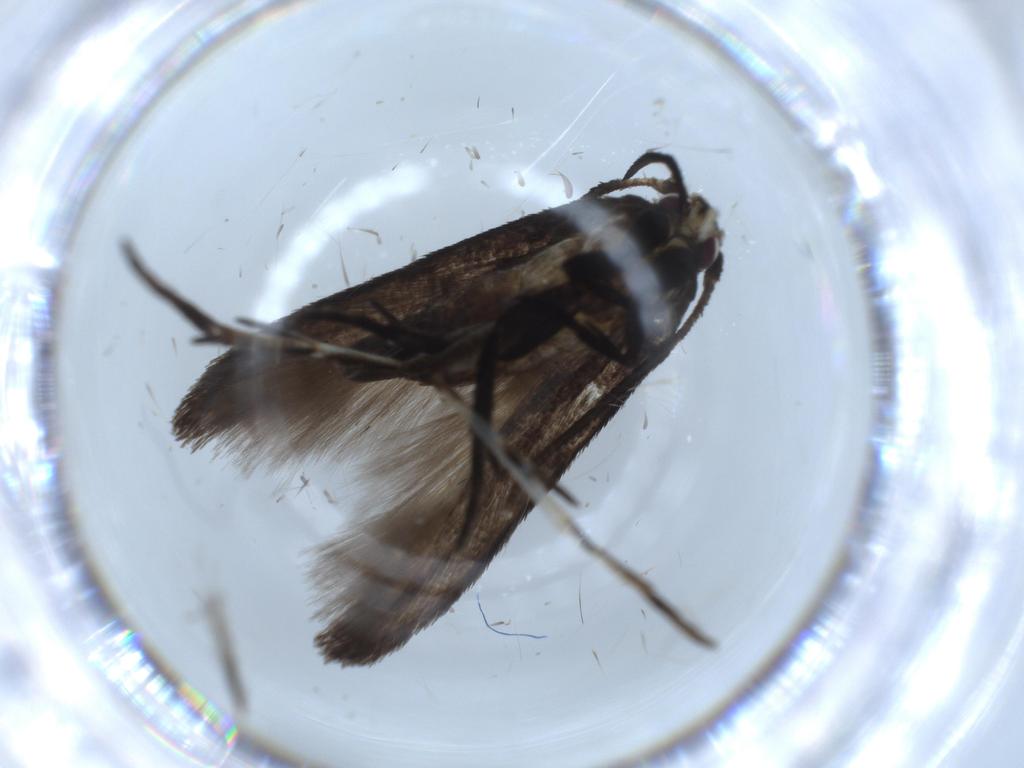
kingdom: Animalia
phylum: Arthropoda
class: Insecta
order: Lepidoptera
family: Cosmopterigidae
